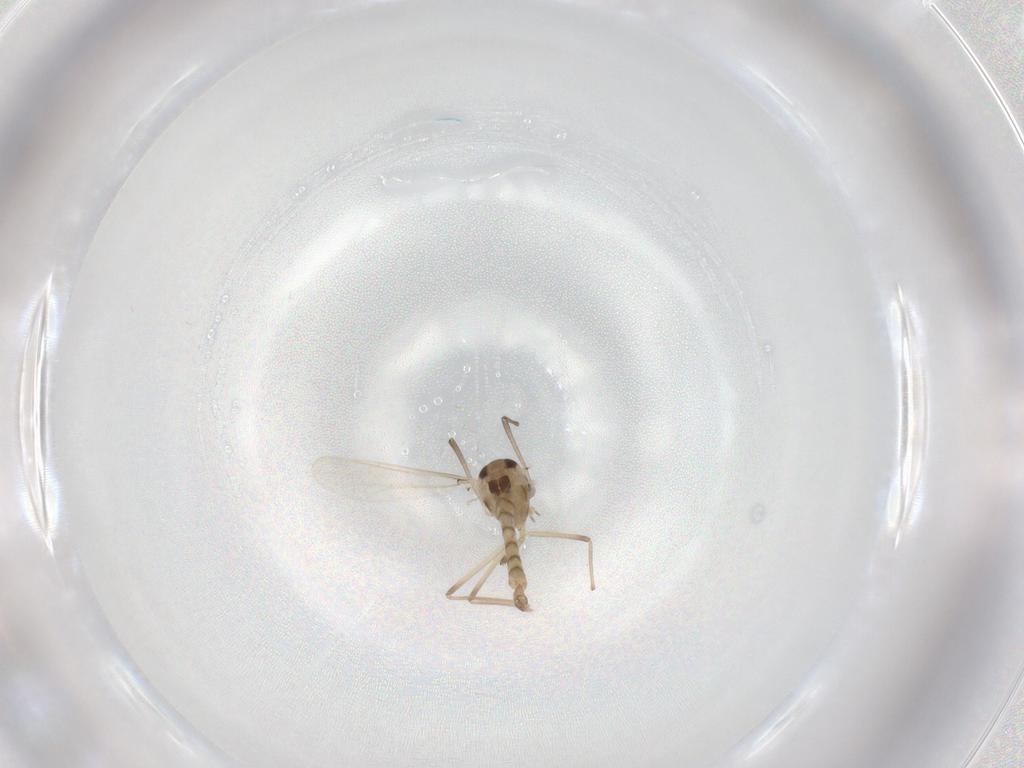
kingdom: Animalia
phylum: Arthropoda
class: Insecta
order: Diptera
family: Chironomidae
